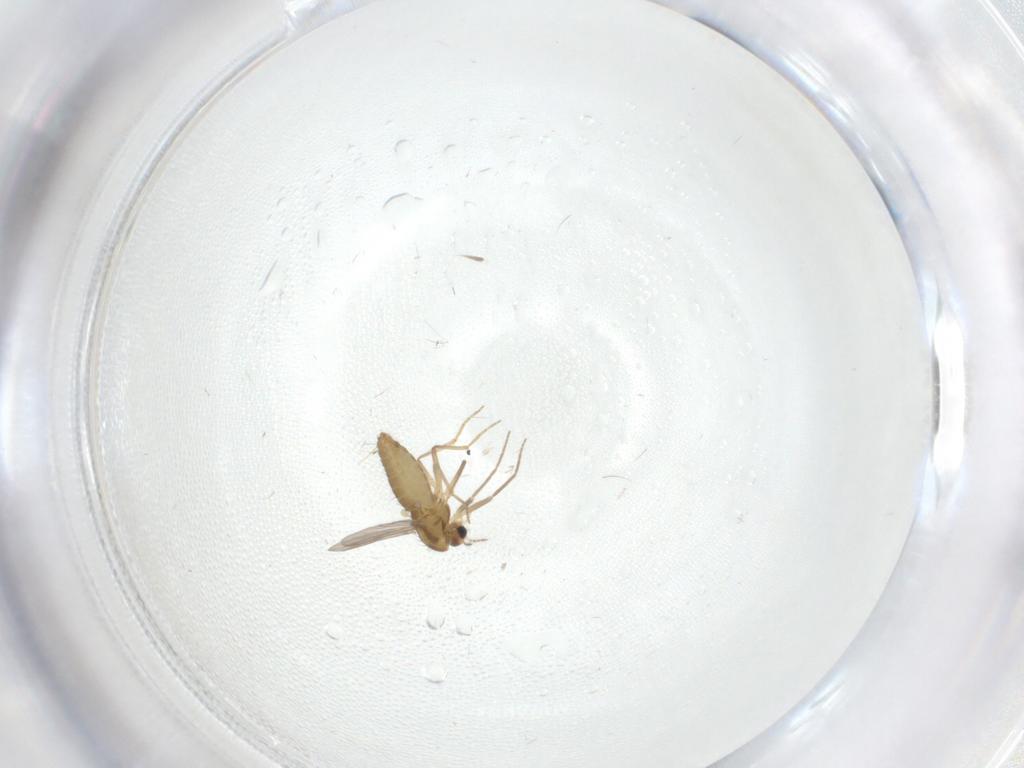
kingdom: Animalia
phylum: Arthropoda
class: Insecta
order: Diptera
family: Chironomidae
